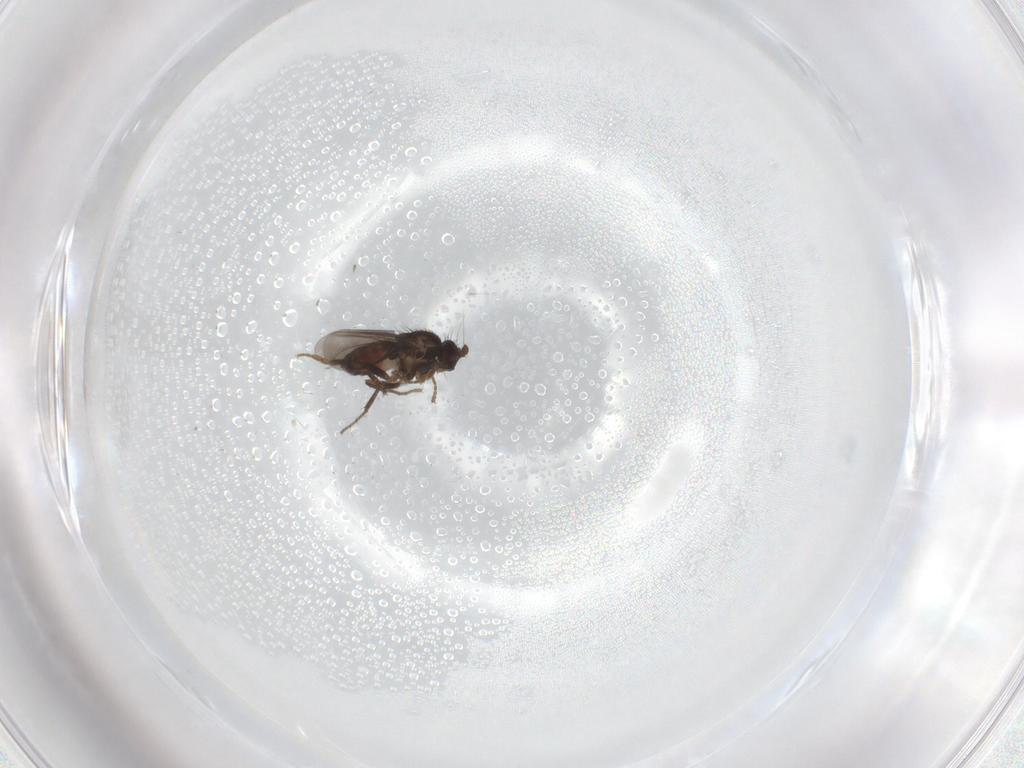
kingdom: Animalia
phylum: Arthropoda
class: Insecta
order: Diptera
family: Sphaeroceridae
